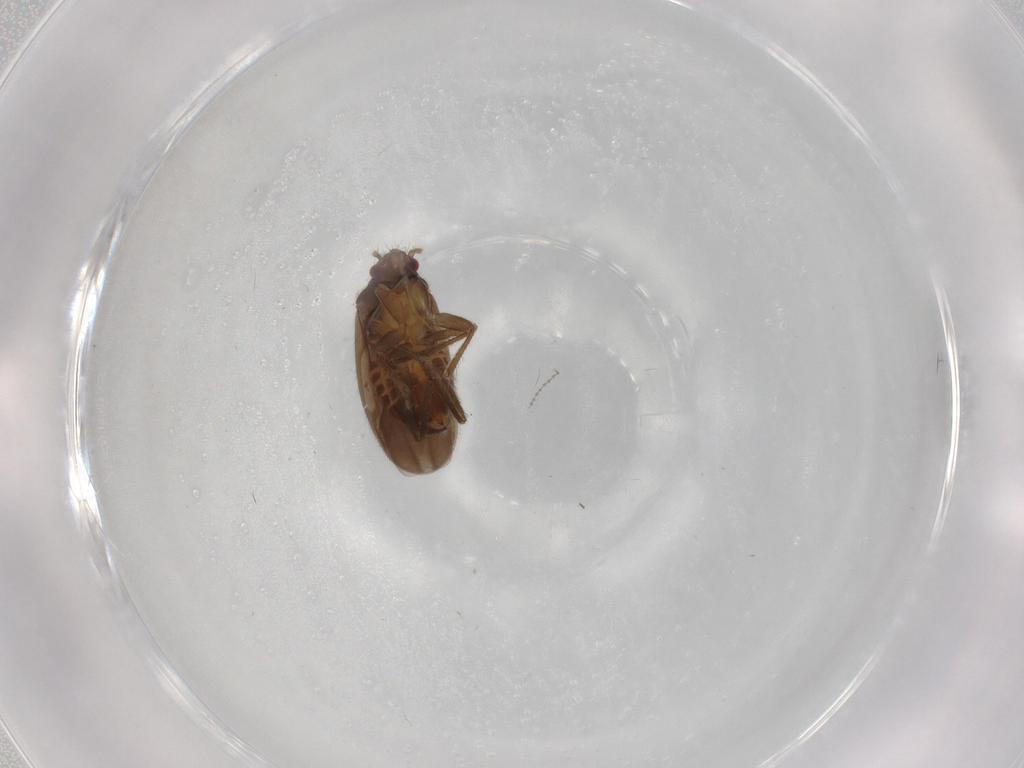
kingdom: Animalia
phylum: Arthropoda
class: Insecta
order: Hemiptera
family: Ceratocombidae
